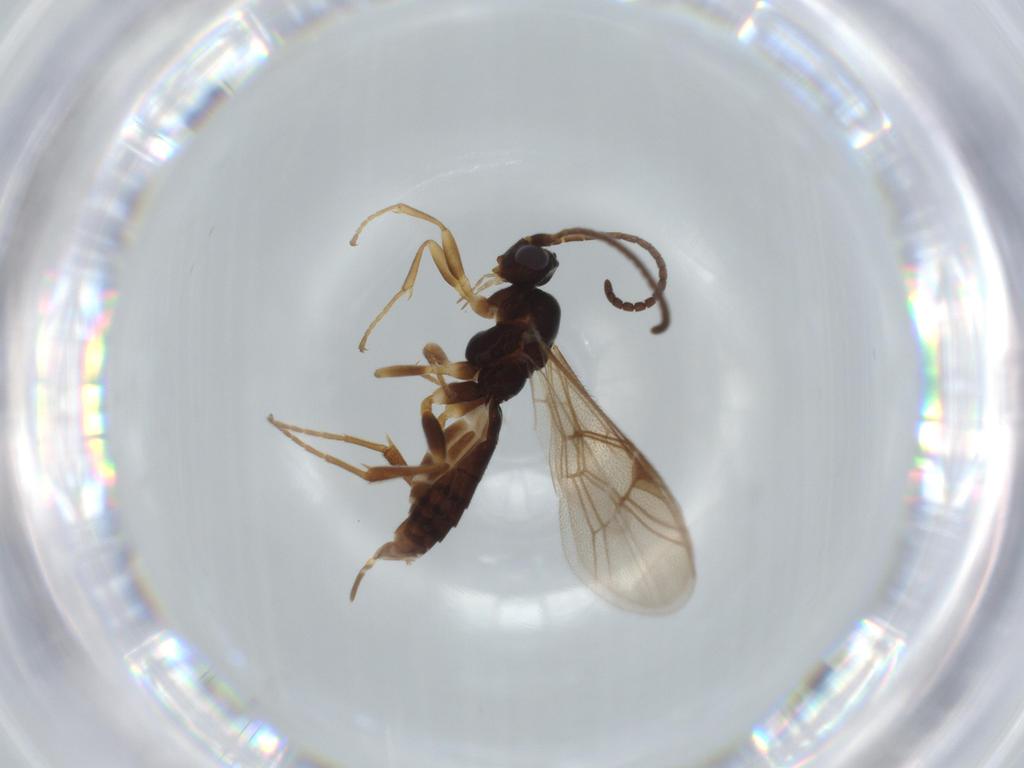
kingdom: Animalia
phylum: Arthropoda
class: Insecta
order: Hymenoptera
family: Ichneumonidae
